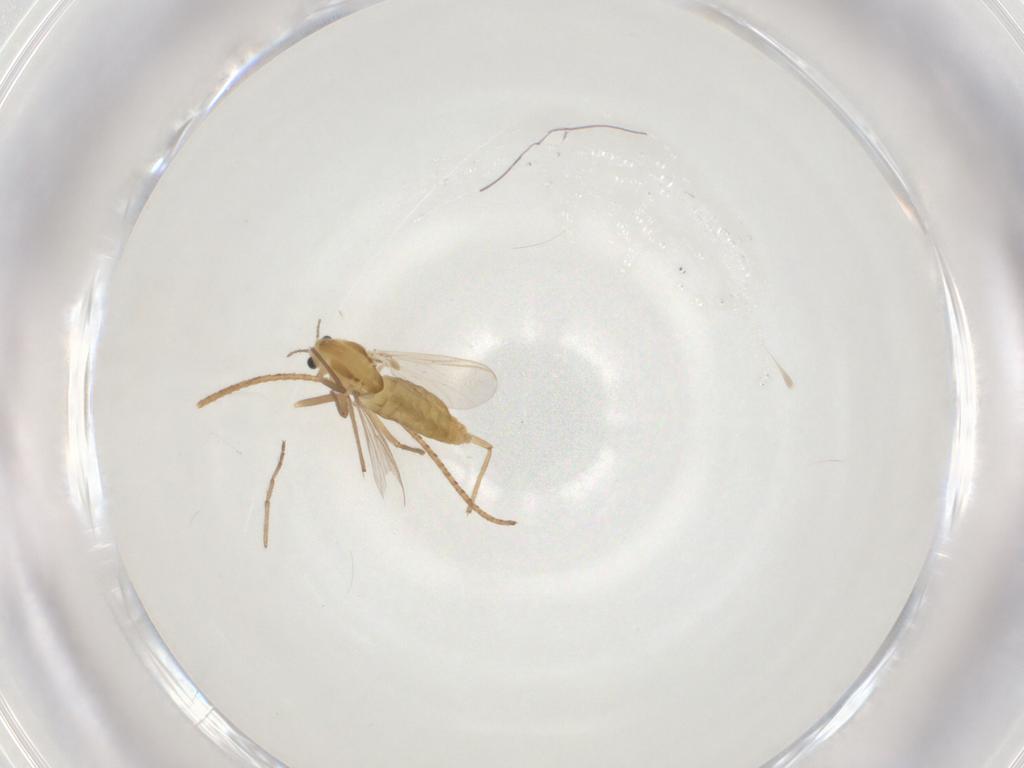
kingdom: Animalia
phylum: Arthropoda
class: Insecta
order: Diptera
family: Chironomidae
